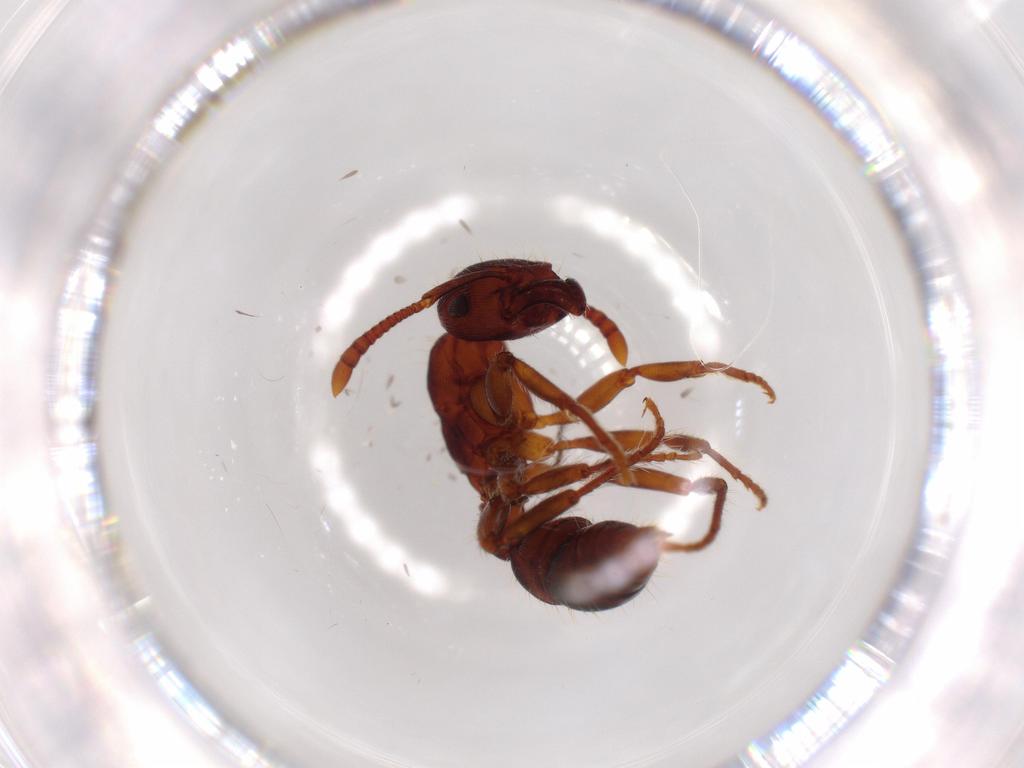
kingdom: Animalia
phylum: Arthropoda
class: Insecta
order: Hymenoptera
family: Formicidae
